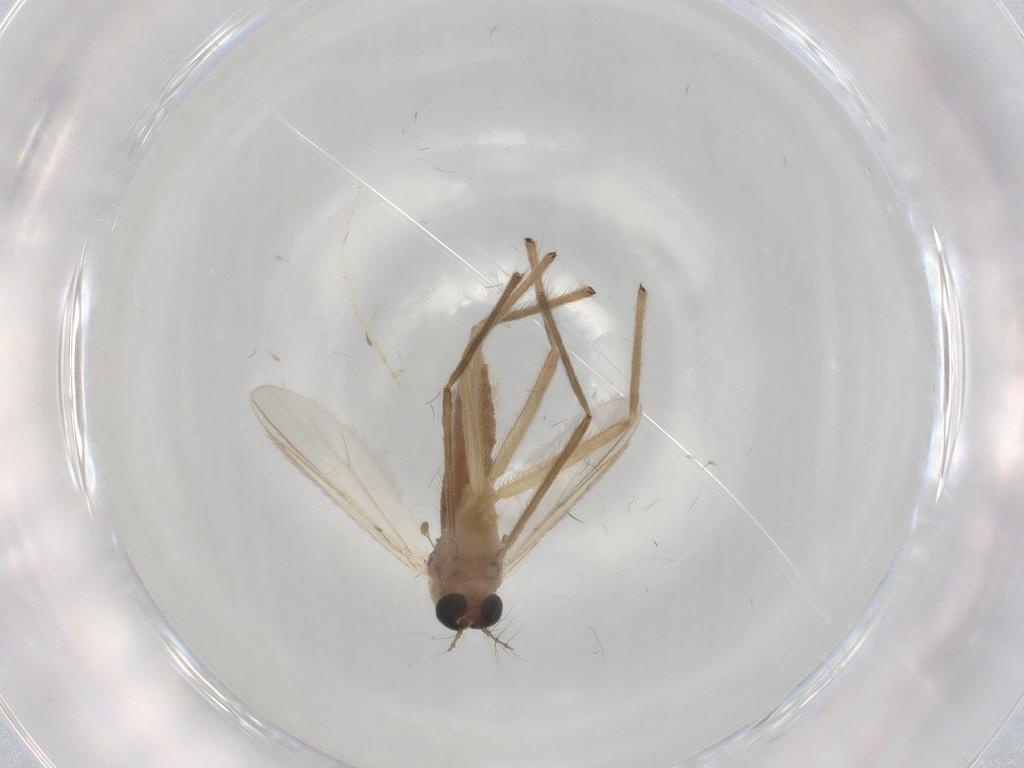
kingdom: Animalia
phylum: Arthropoda
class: Insecta
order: Diptera
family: Chironomidae
